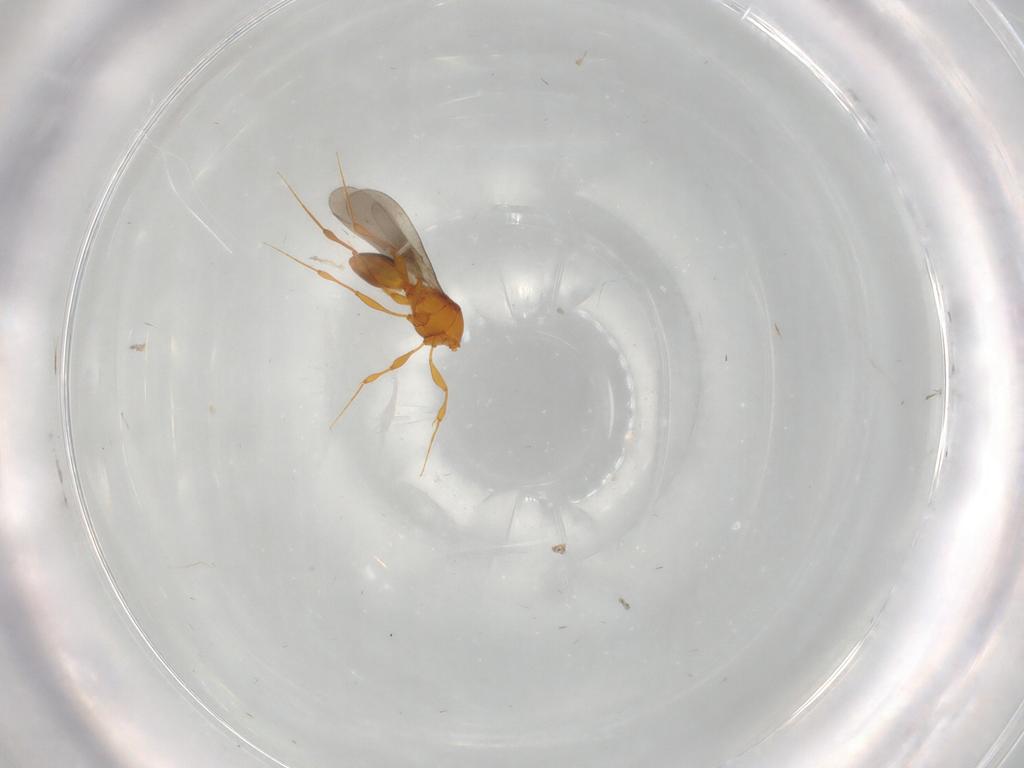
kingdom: Animalia
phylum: Arthropoda
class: Insecta
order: Hymenoptera
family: Platygastridae
